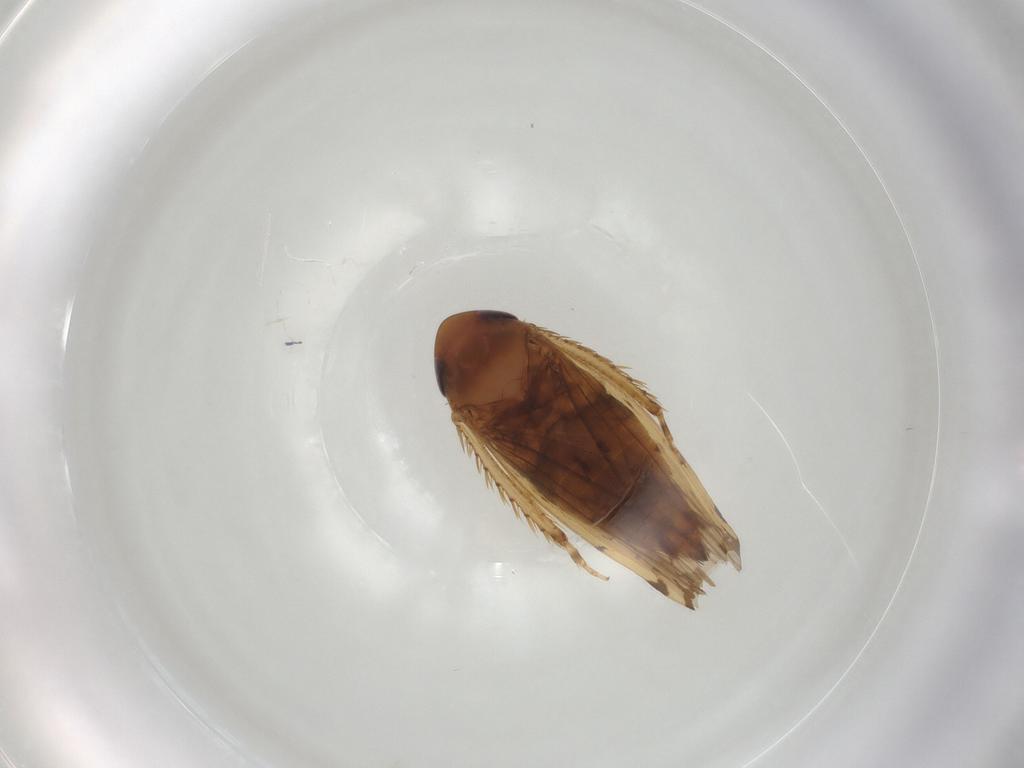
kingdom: Animalia
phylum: Arthropoda
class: Insecta
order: Hemiptera
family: Cicadellidae
